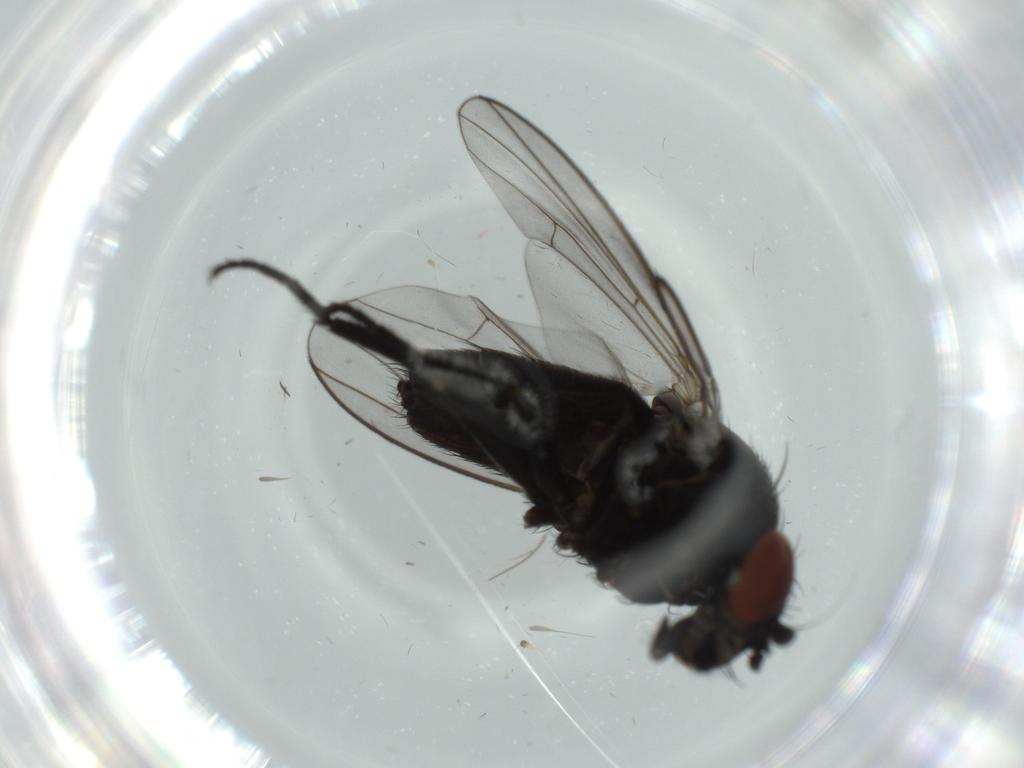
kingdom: Animalia
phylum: Arthropoda
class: Insecta
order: Diptera
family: Milichiidae
